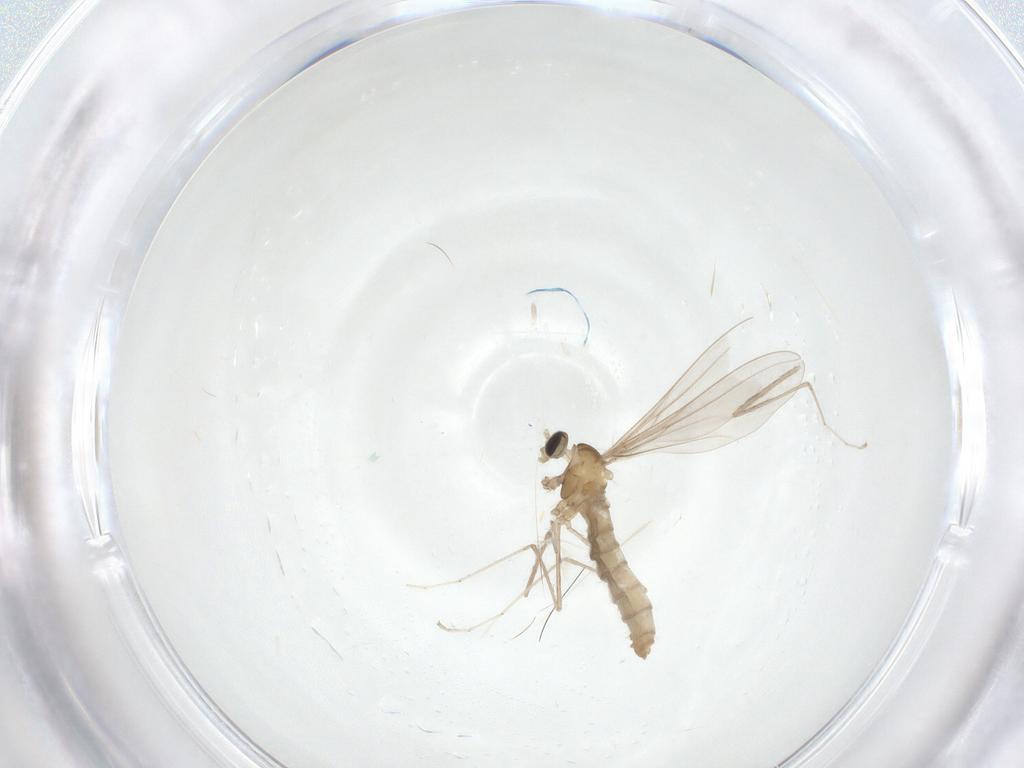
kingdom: Animalia
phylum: Arthropoda
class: Insecta
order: Diptera
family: Cecidomyiidae
